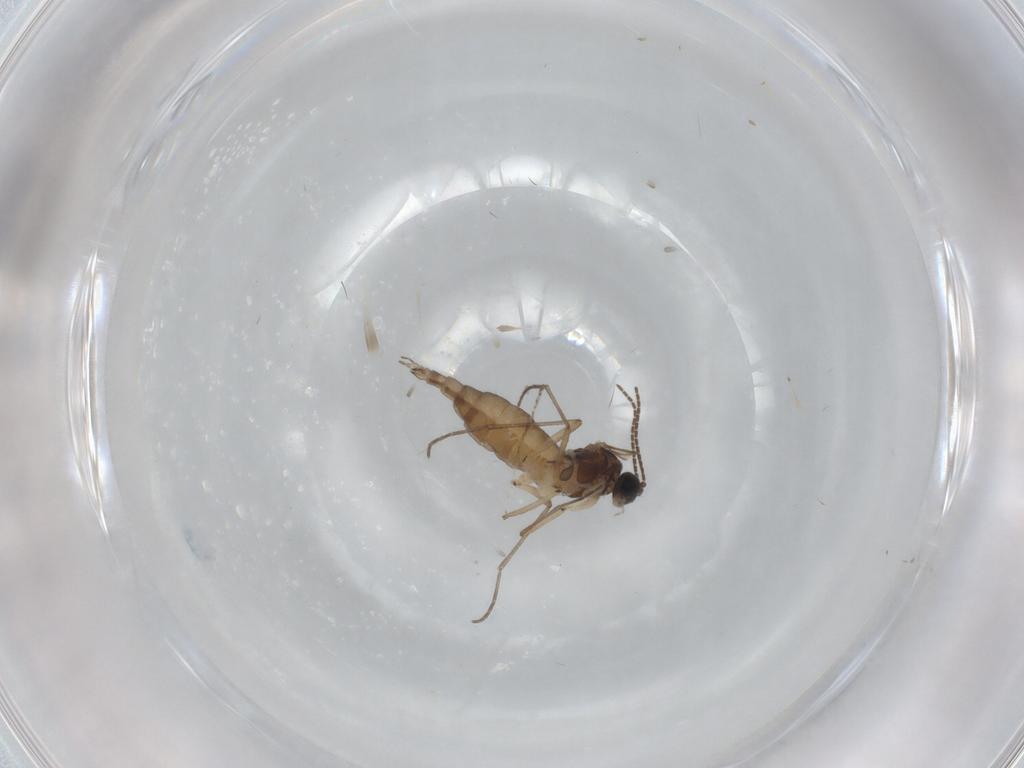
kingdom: Animalia
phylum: Arthropoda
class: Insecta
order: Diptera
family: Sciaridae
